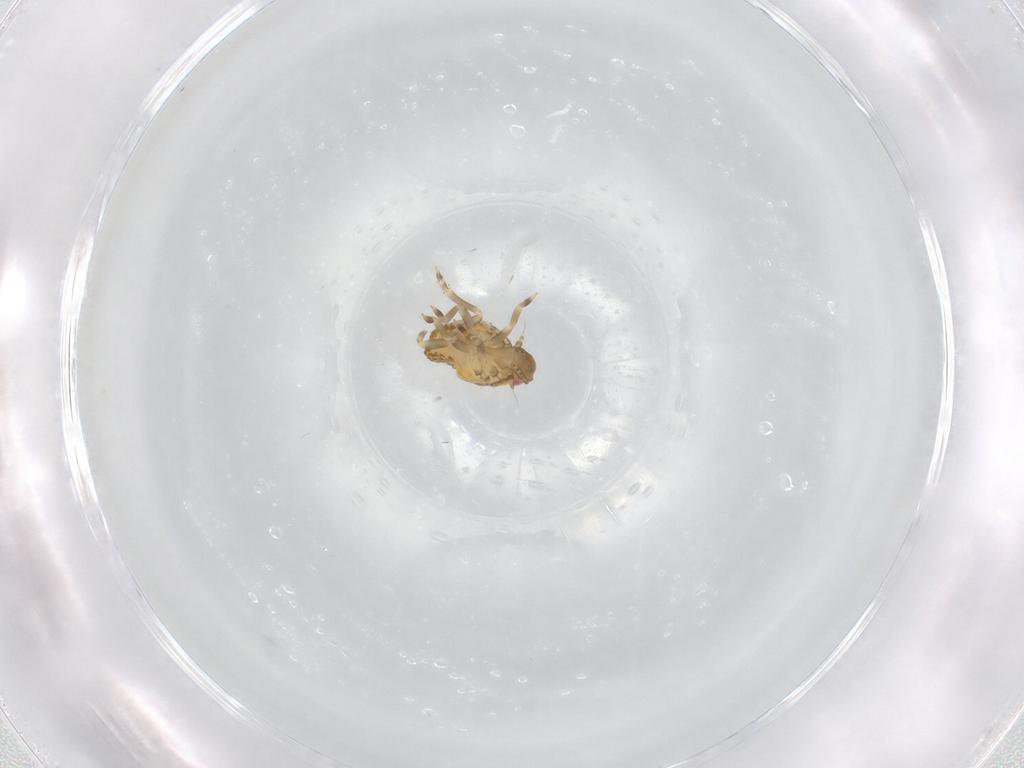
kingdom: Animalia
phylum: Arthropoda
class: Insecta
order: Hemiptera
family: Flatidae
